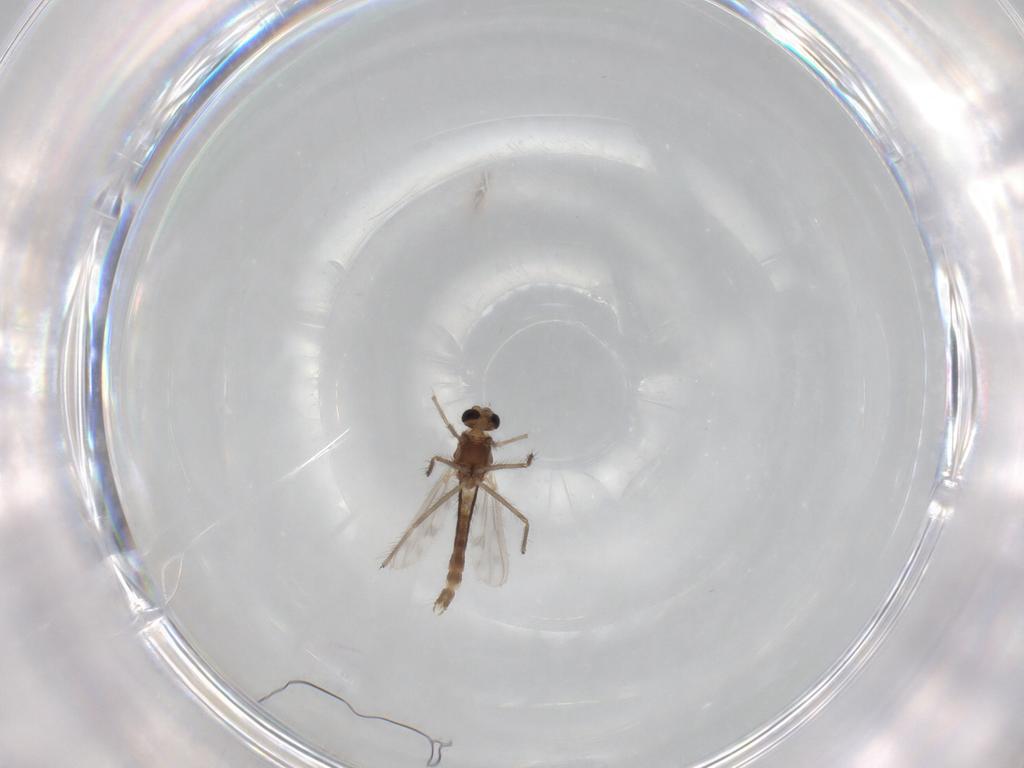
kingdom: Animalia
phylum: Arthropoda
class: Insecta
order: Diptera
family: Chironomidae
